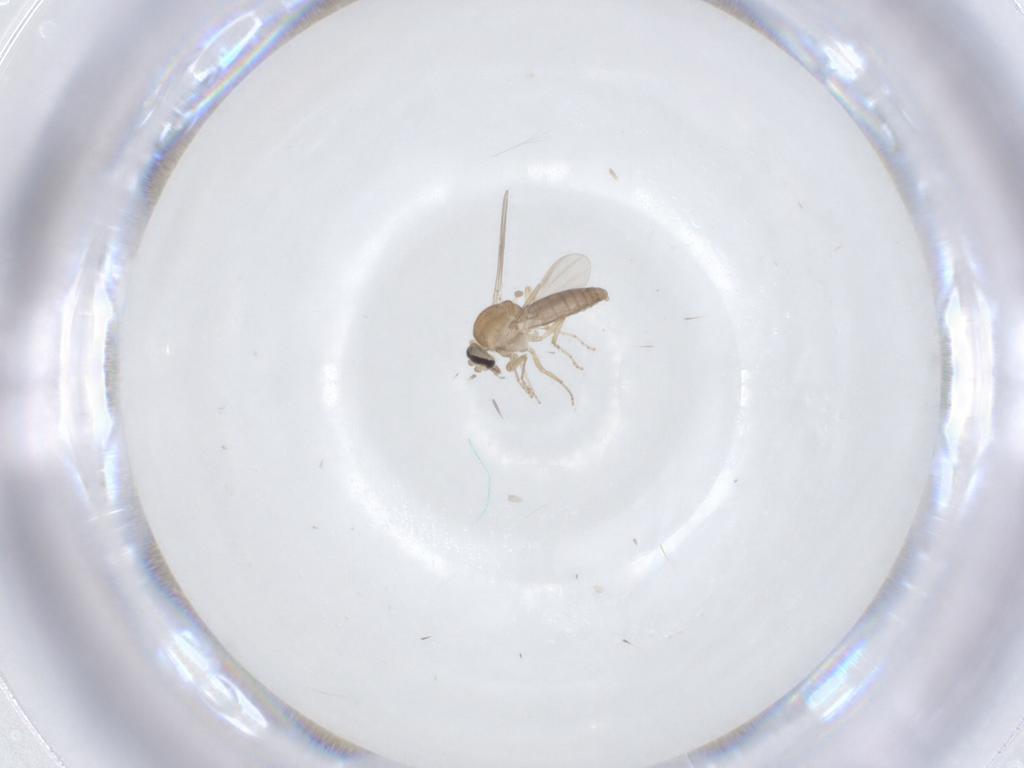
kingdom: Animalia
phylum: Arthropoda
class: Insecta
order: Diptera
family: Ceratopogonidae
